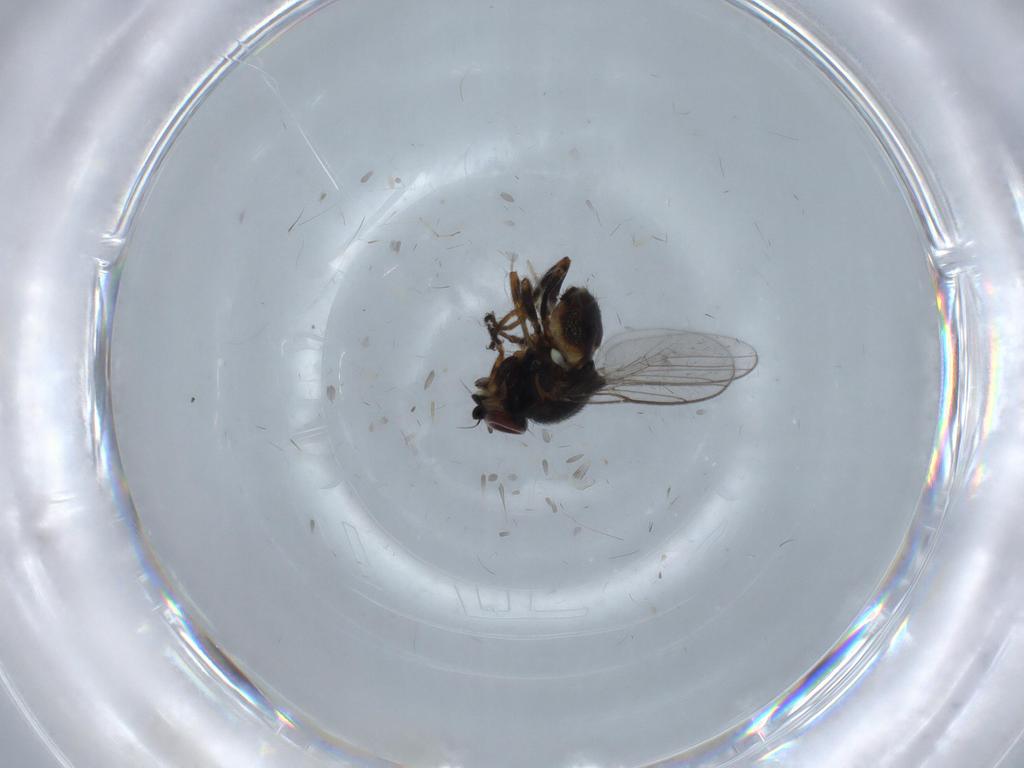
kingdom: Animalia
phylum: Arthropoda
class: Insecta
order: Diptera
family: Chloropidae
